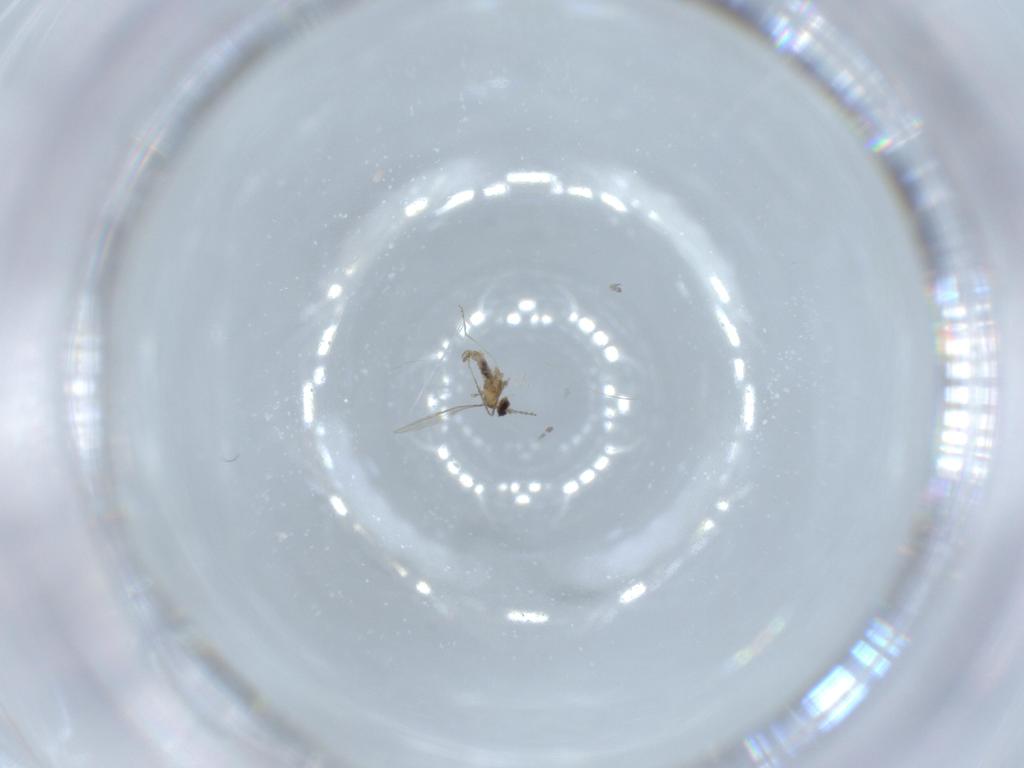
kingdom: Animalia
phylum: Arthropoda
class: Insecta
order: Diptera
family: Cecidomyiidae
